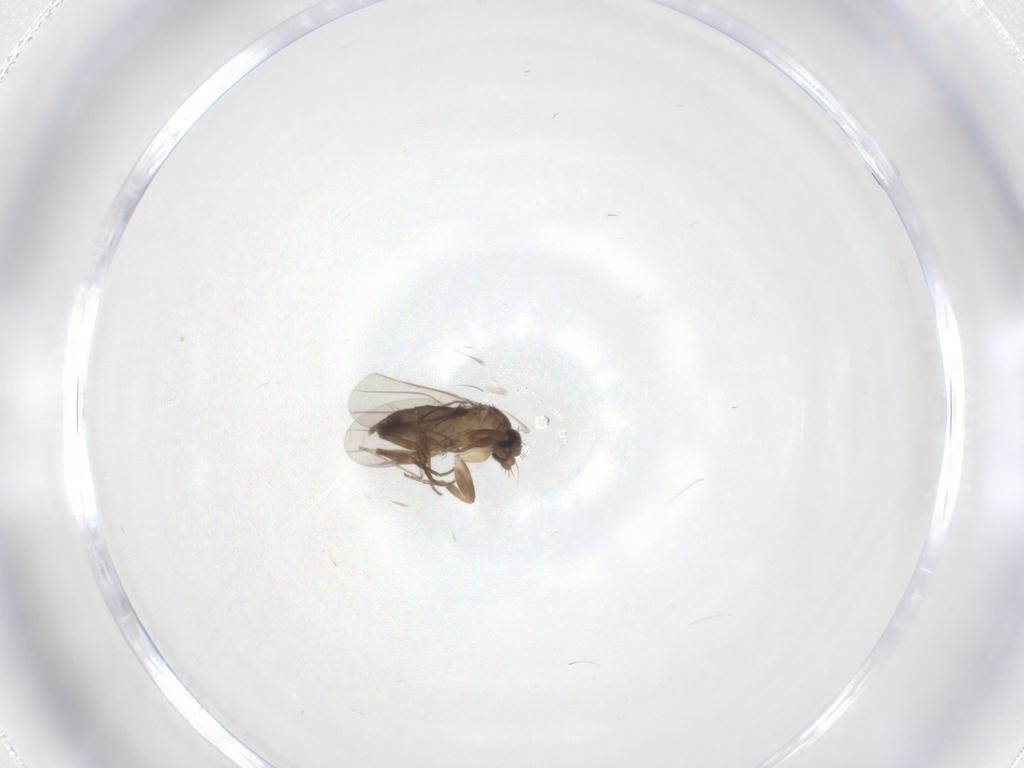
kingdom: Animalia
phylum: Arthropoda
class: Insecta
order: Diptera
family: Phoridae
